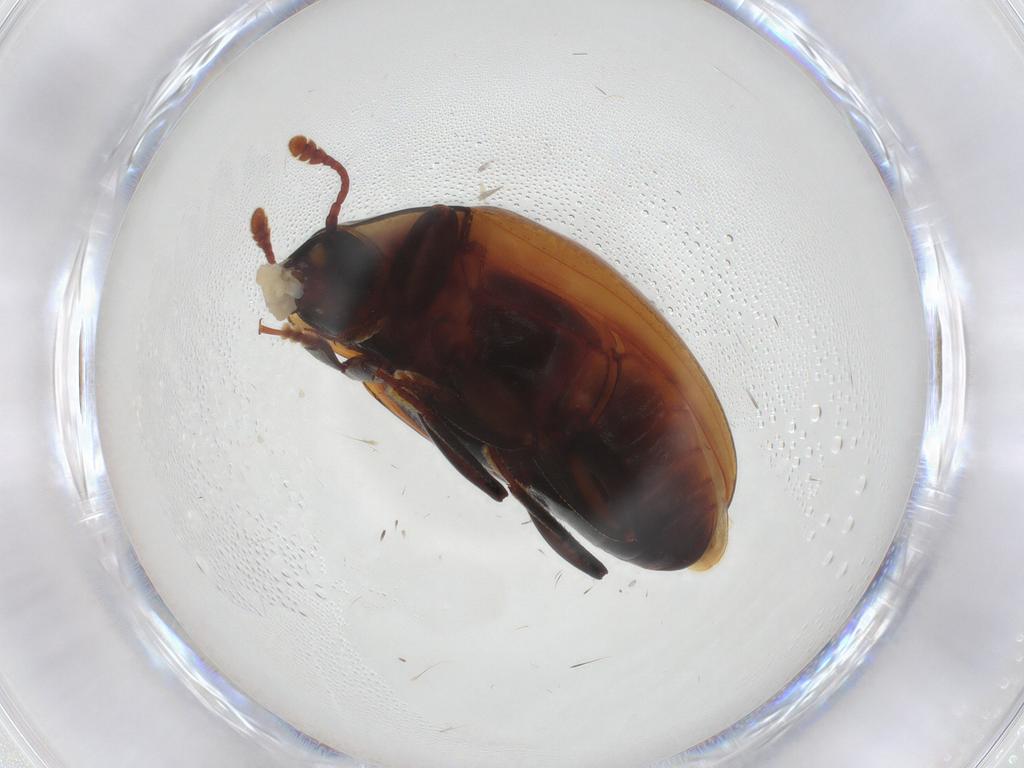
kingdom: Animalia
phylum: Arthropoda
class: Insecta
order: Coleoptera
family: Zopheridae
